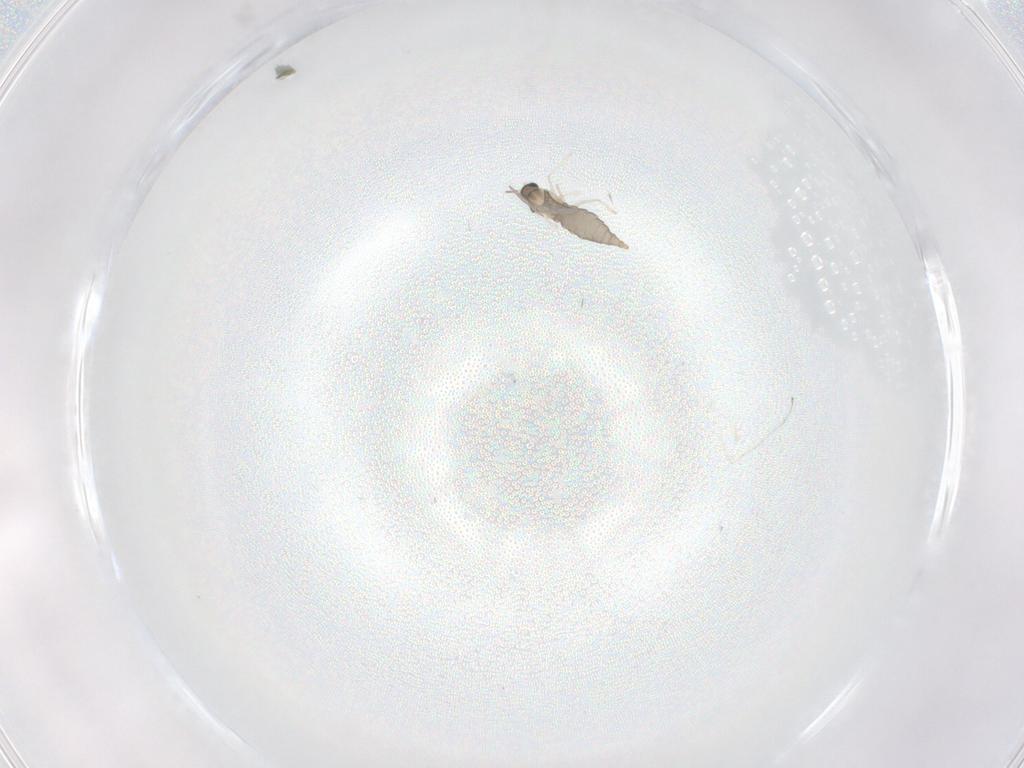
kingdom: Animalia
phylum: Arthropoda
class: Insecta
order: Diptera
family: Cecidomyiidae
